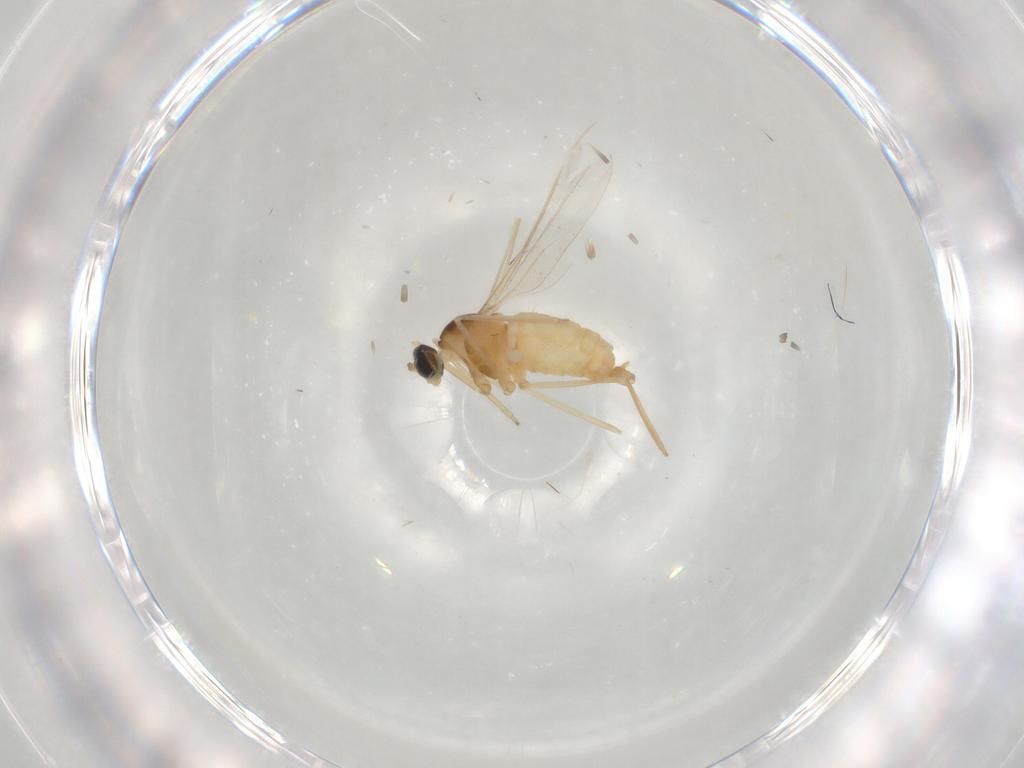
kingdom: Animalia
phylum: Arthropoda
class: Insecta
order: Diptera
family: Cecidomyiidae
